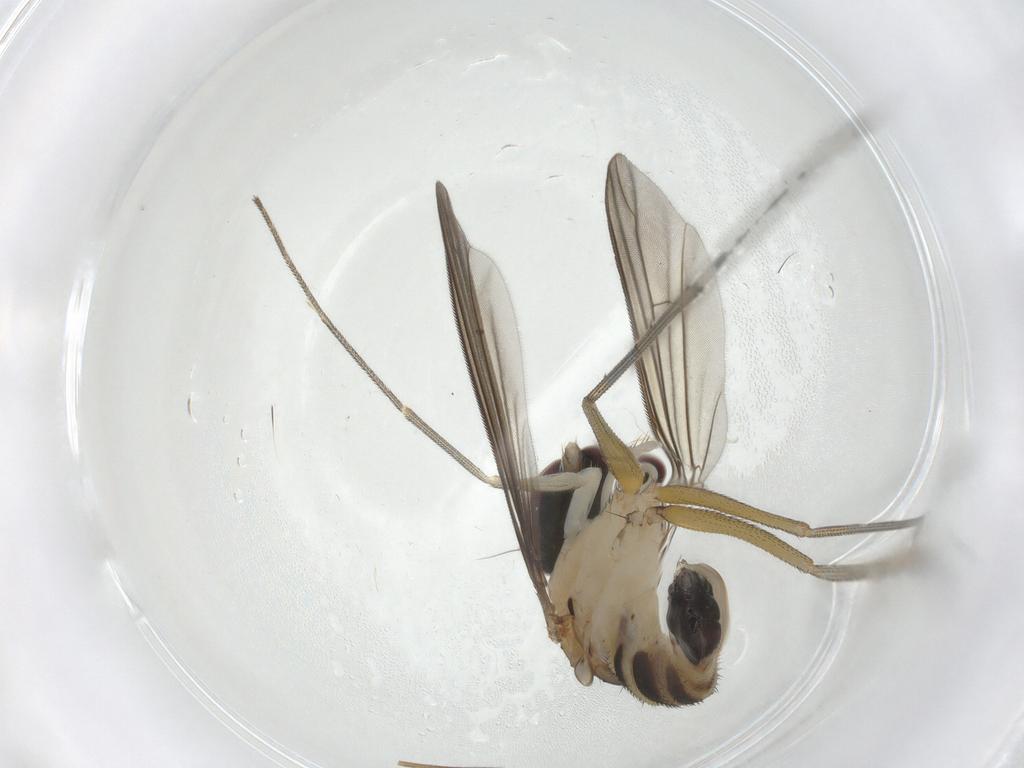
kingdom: Animalia
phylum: Arthropoda
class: Insecta
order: Diptera
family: Dolichopodidae
